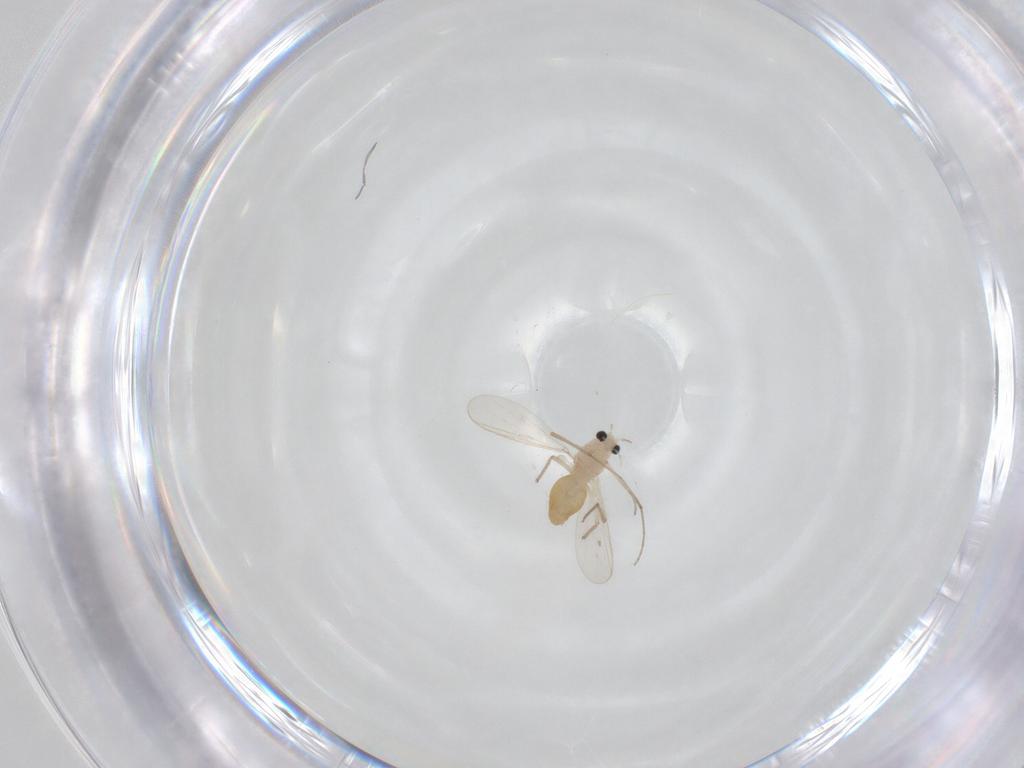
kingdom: Animalia
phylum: Arthropoda
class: Insecta
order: Diptera
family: Chironomidae
